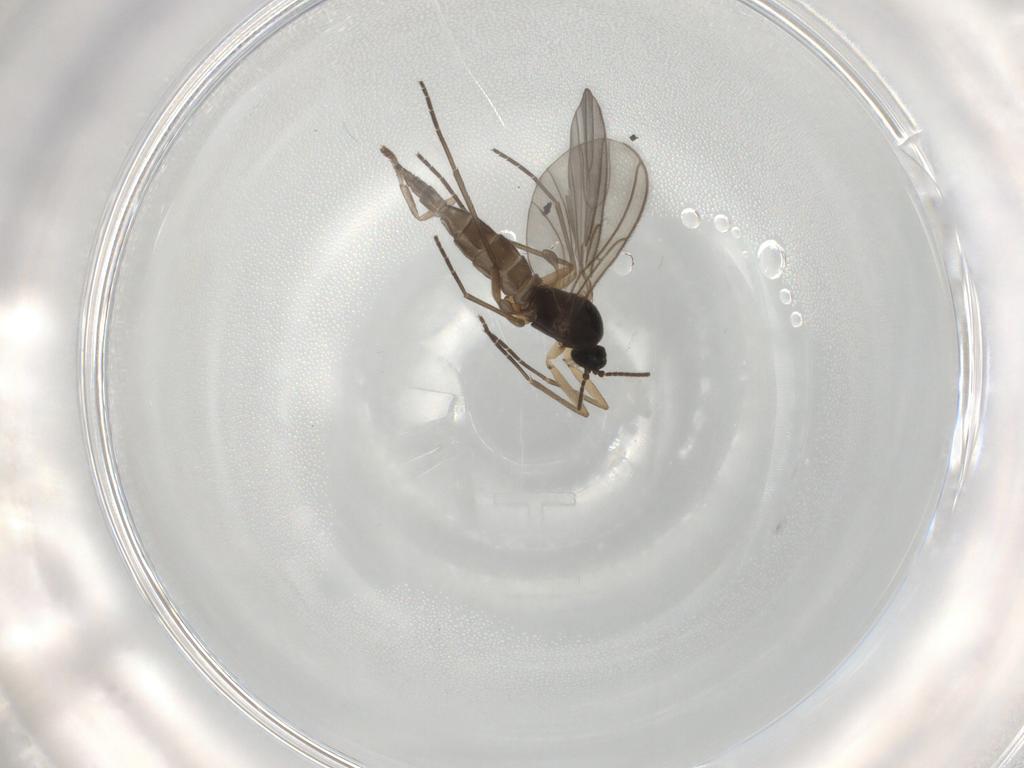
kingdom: Animalia
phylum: Arthropoda
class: Insecta
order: Diptera
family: Sciaridae
